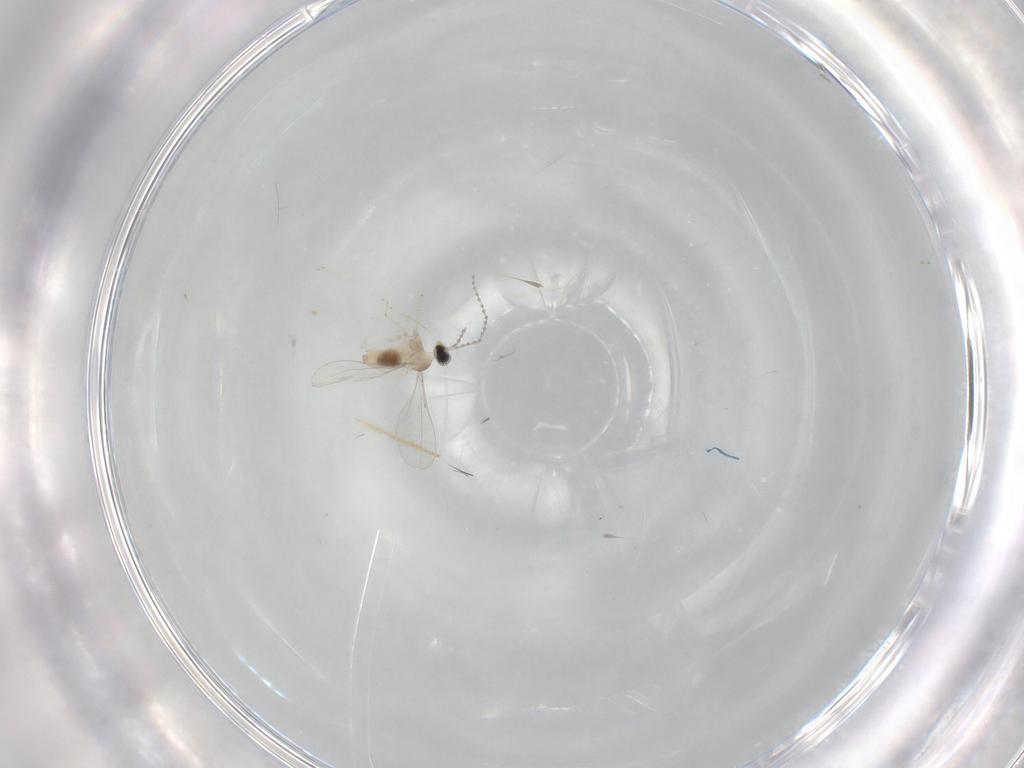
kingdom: Animalia
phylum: Arthropoda
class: Insecta
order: Diptera
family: Cecidomyiidae
